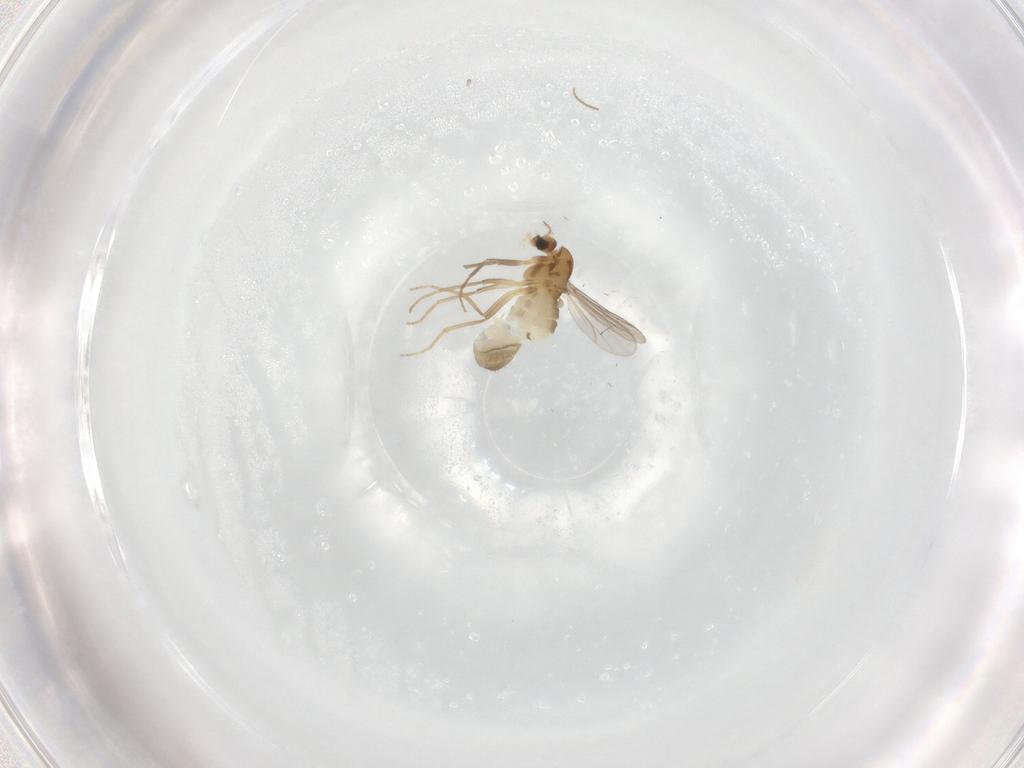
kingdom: Animalia
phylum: Arthropoda
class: Insecta
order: Diptera
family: Chironomidae
